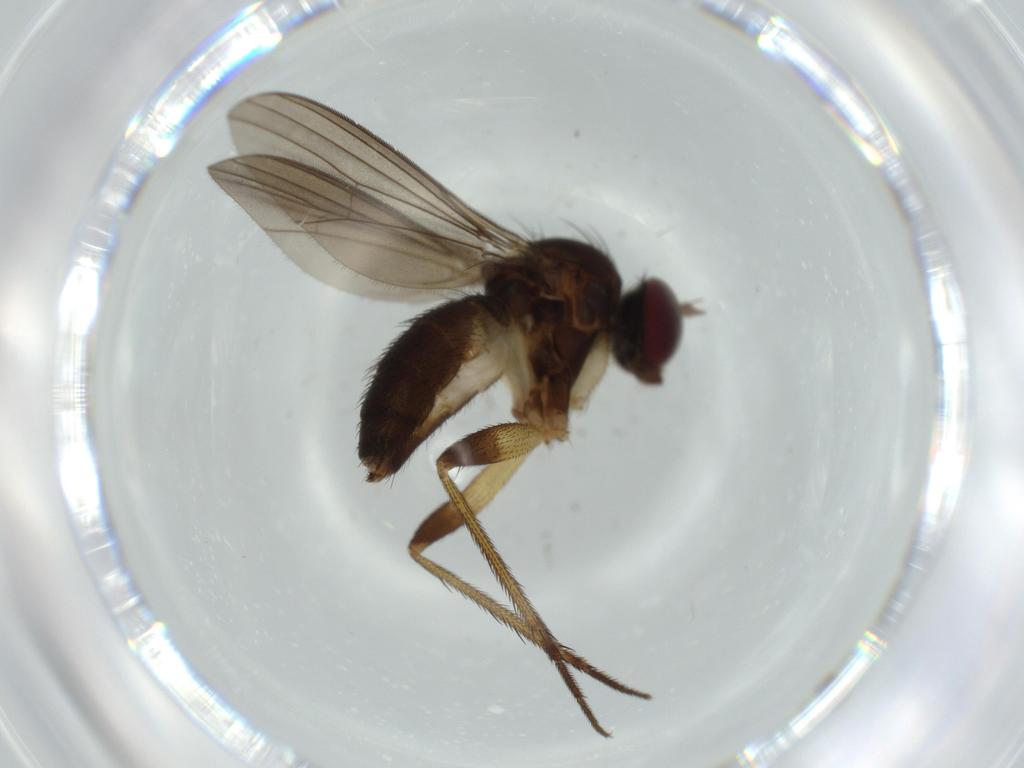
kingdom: Animalia
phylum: Arthropoda
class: Insecta
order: Diptera
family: Dolichopodidae
